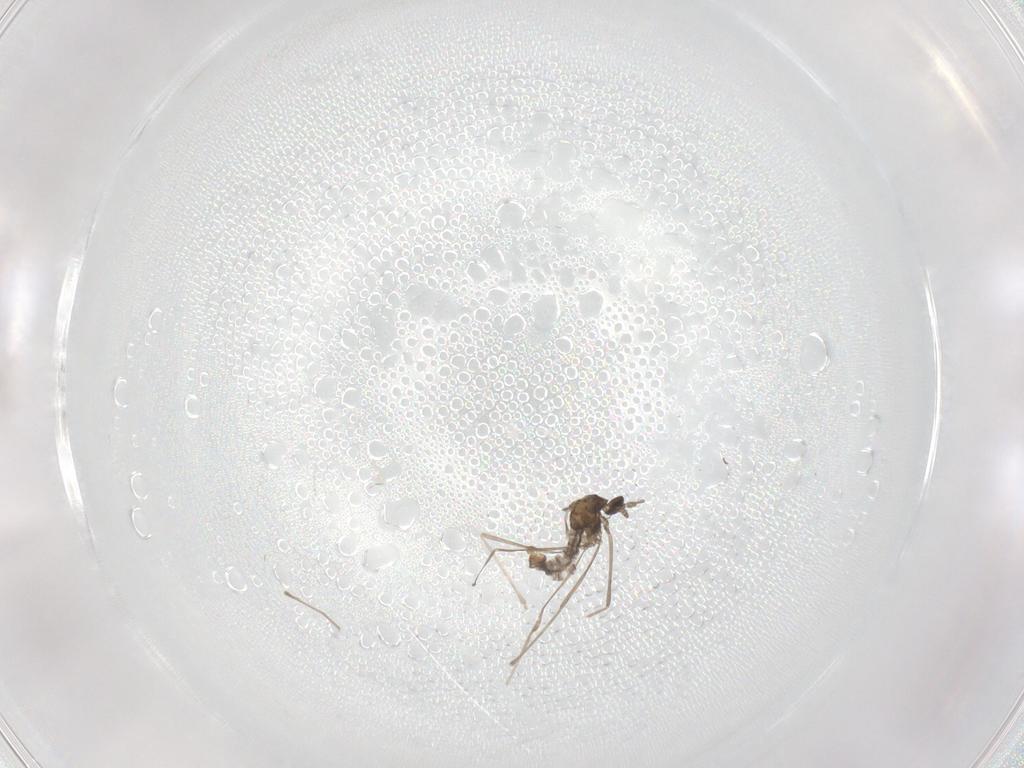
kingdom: Animalia
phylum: Arthropoda
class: Insecta
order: Diptera
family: Cecidomyiidae
